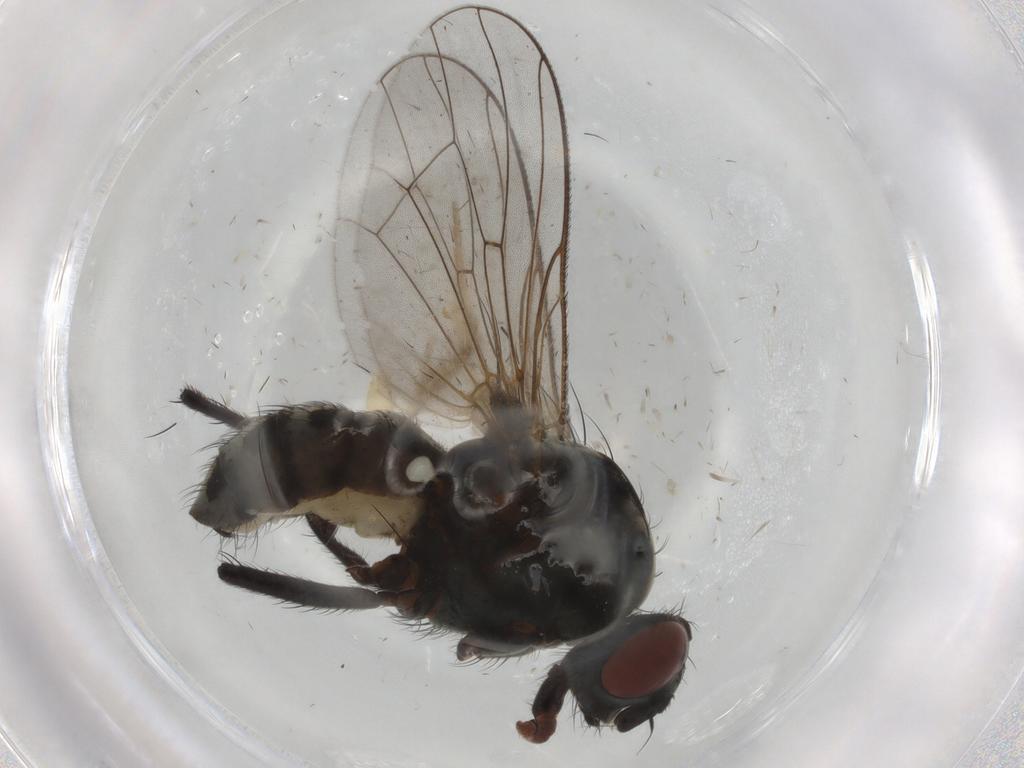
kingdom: Animalia
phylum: Arthropoda
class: Insecta
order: Diptera
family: Anthomyiidae
